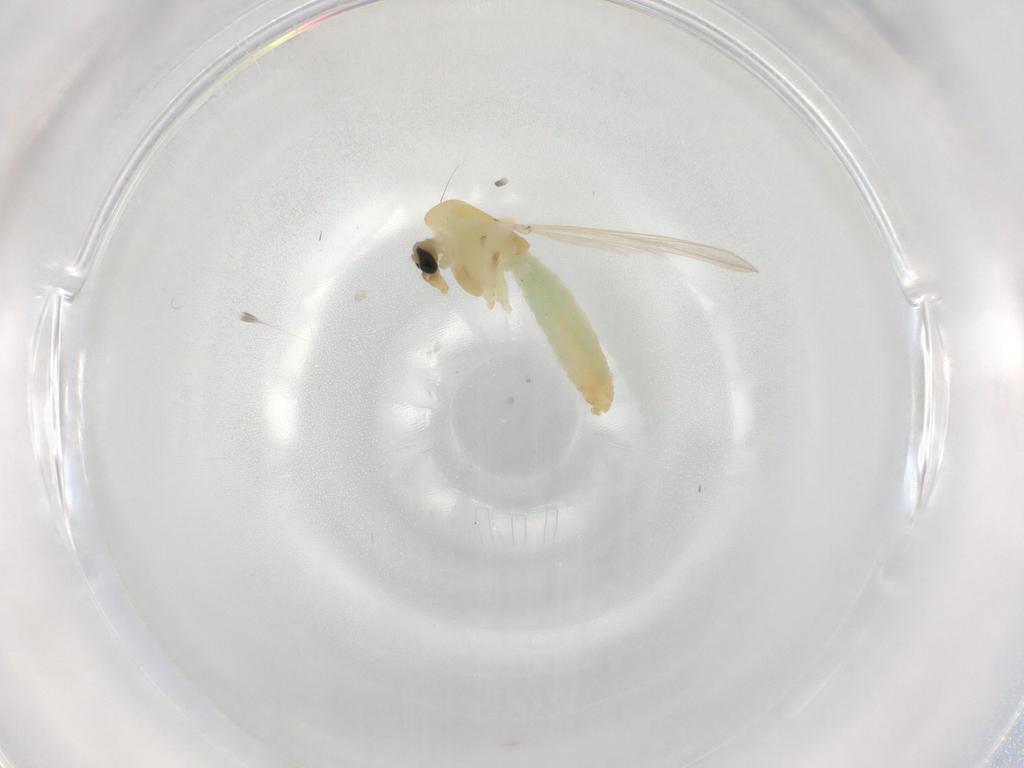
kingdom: Animalia
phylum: Arthropoda
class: Insecta
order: Diptera
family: Chironomidae
